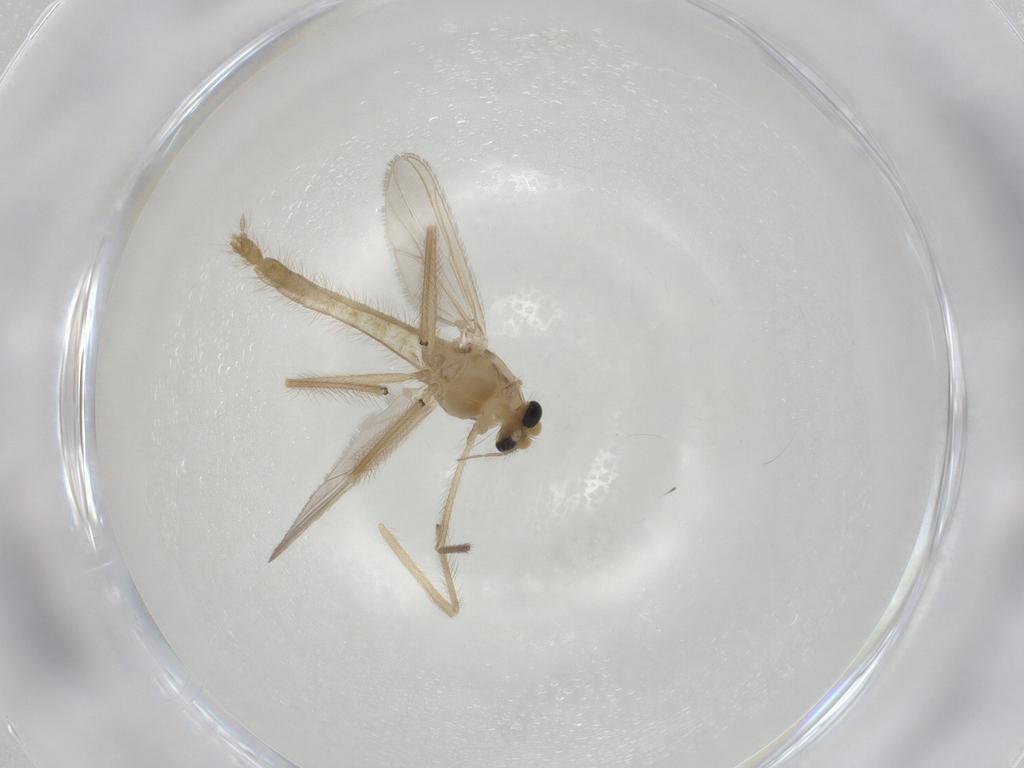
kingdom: Animalia
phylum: Arthropoda
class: Insecta
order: Diptera
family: Chironomidae
